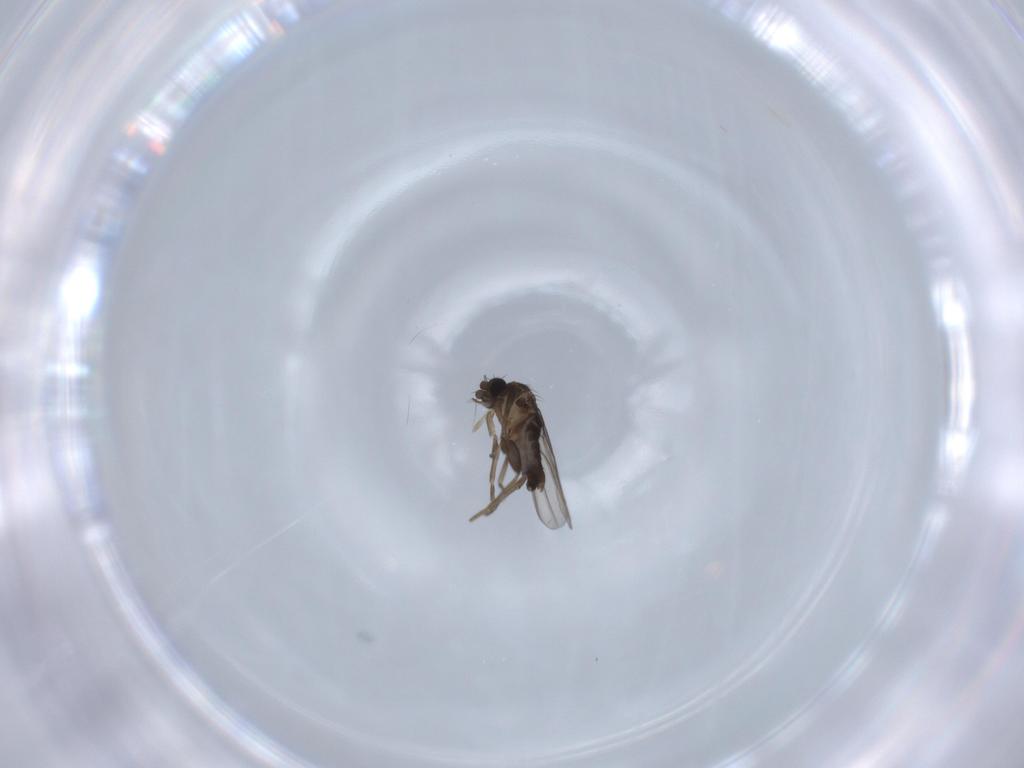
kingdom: Animalia
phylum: Arthropoda
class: Insecta
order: Diptera
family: Phoridae
